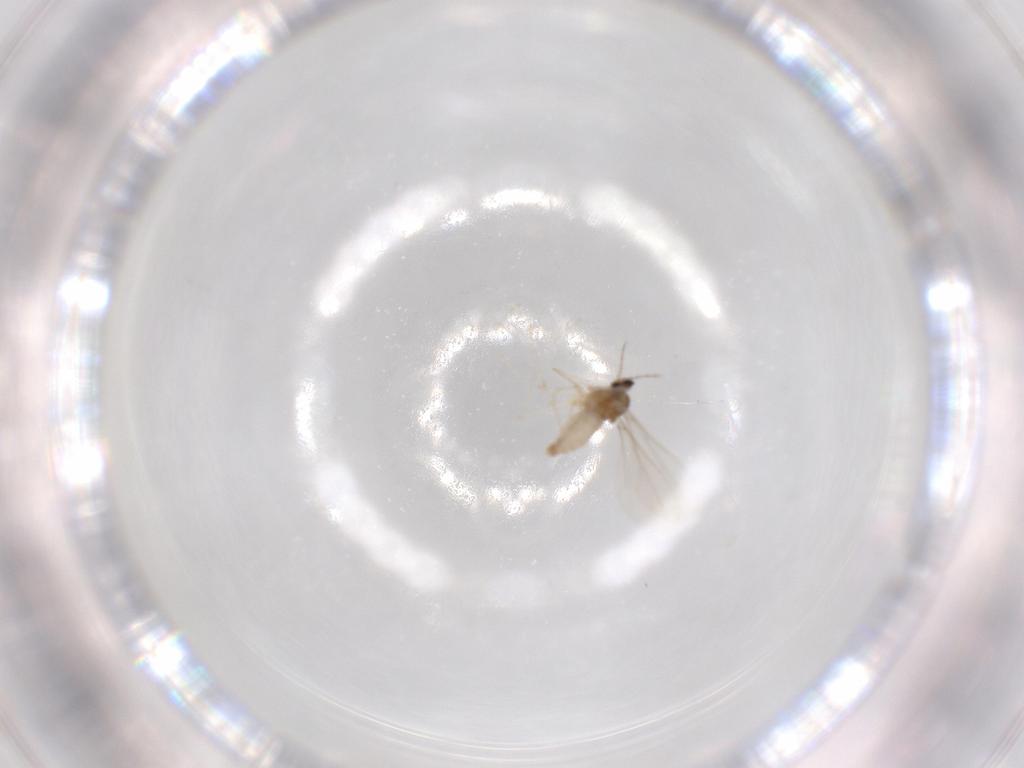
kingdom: Animalia
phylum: Arthropoda
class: Insecta
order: Diptera
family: Cecidomyiidae
